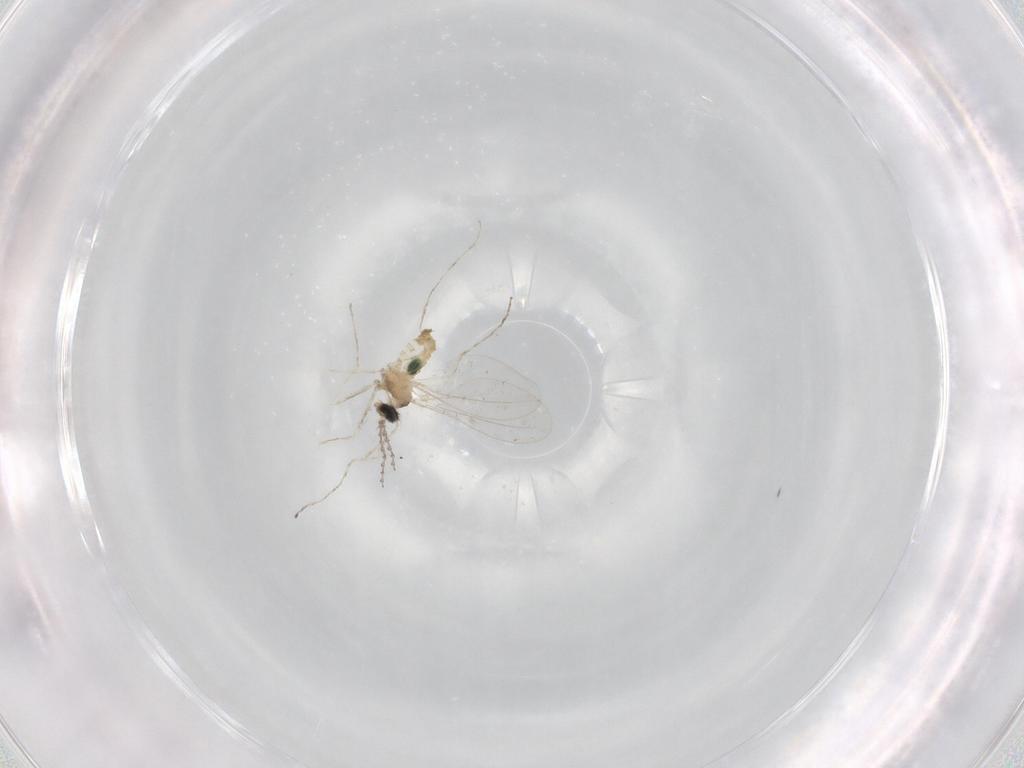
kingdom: Animalia
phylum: Arthropoda
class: Insecta
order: Diptera
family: Cecidomyiidae
